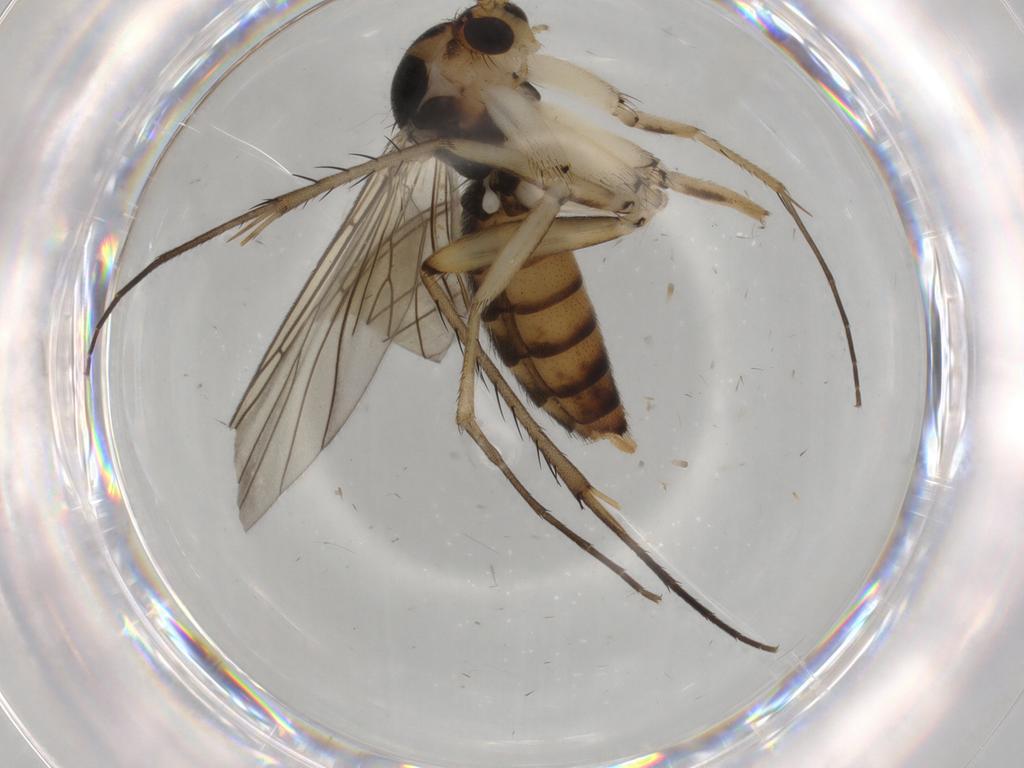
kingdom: Animalia
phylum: Arthropoda
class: Insecta
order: Diptera
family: Mycetophilidae
